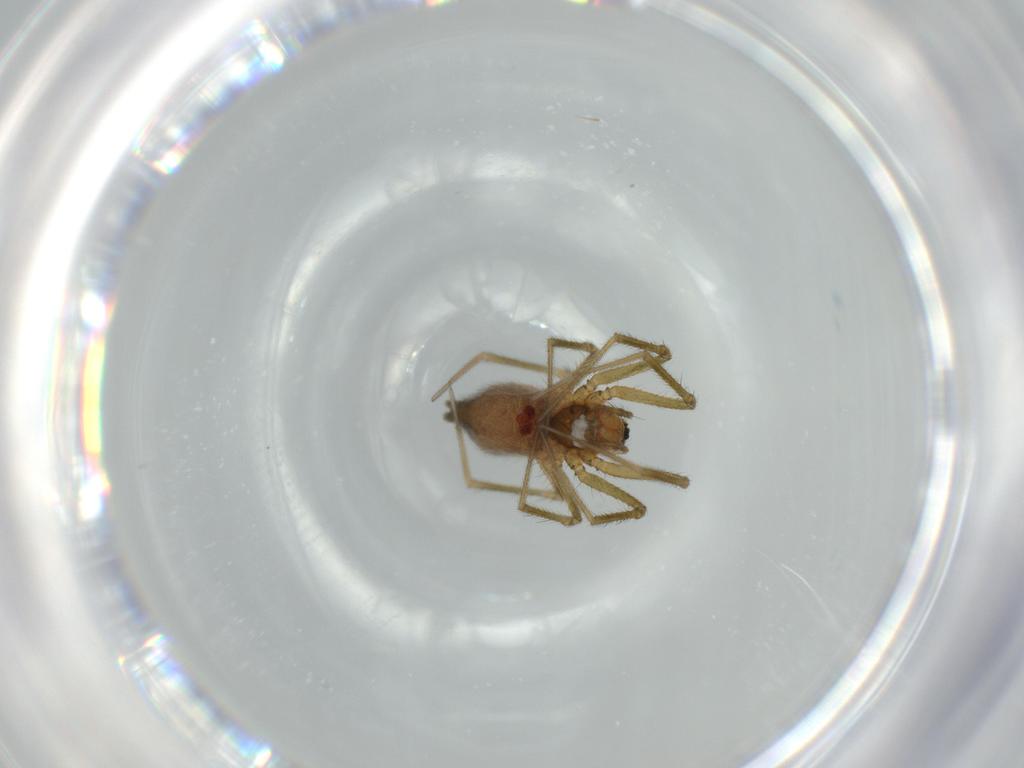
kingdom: Animalia
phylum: Arthropoda
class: Arachnida
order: Araneae
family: Linyphiidae
